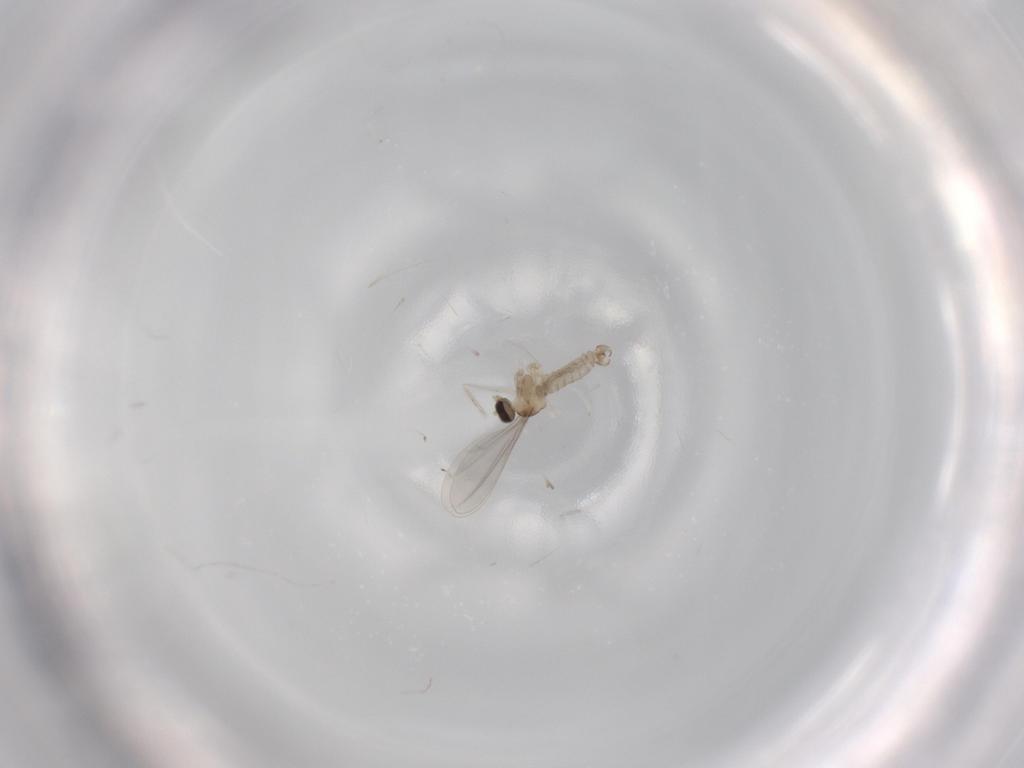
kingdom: Animalia
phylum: Arthropoda
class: Insecta
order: Diptera
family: Cecidomyiidae
